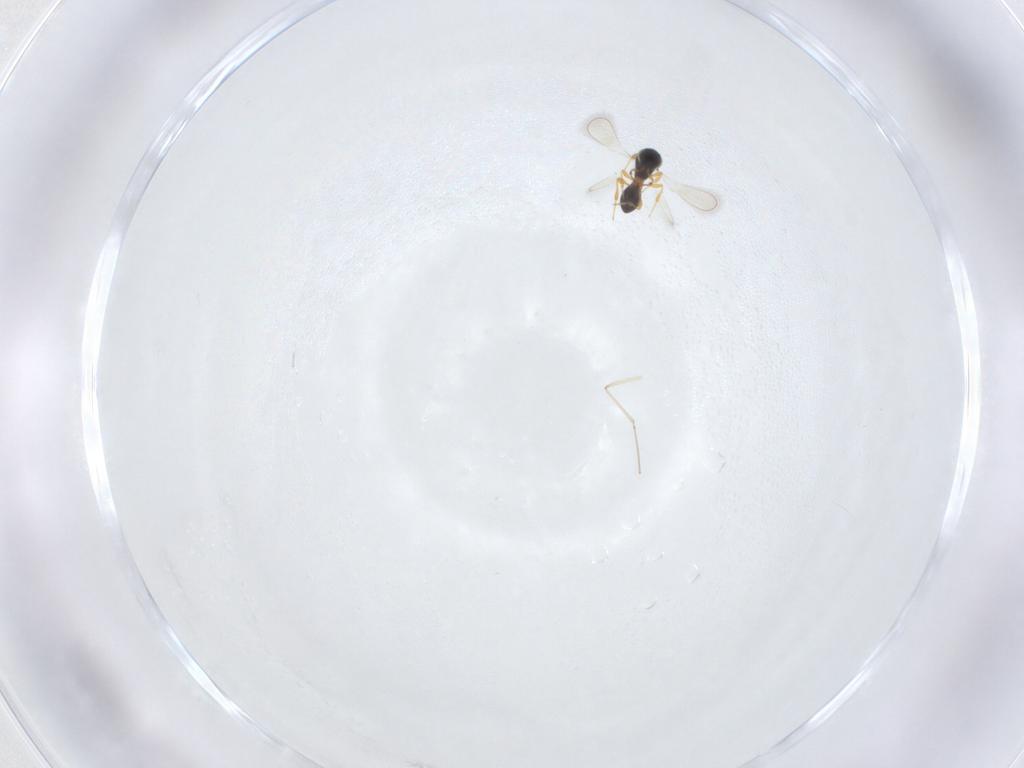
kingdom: Animalia
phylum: Arthropoda
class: Insecta
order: Hymenoptera
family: Platygastridae
